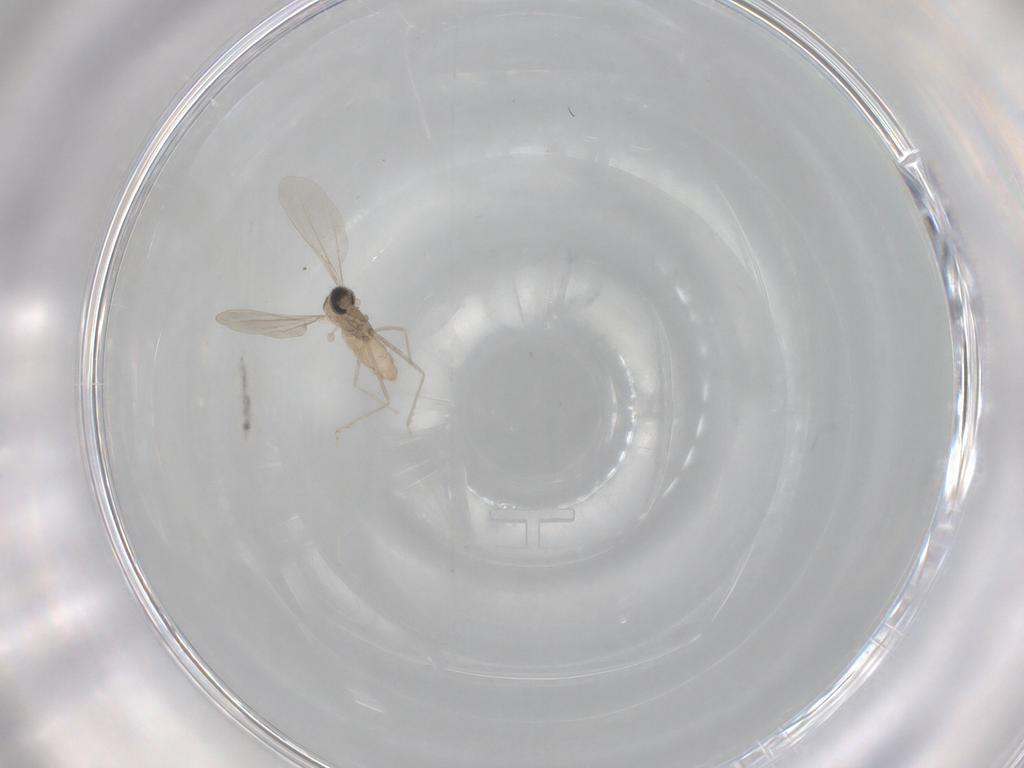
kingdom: Animalia
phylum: Arthropoda
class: Insecta
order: Diptera
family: Cecidomyiidae
